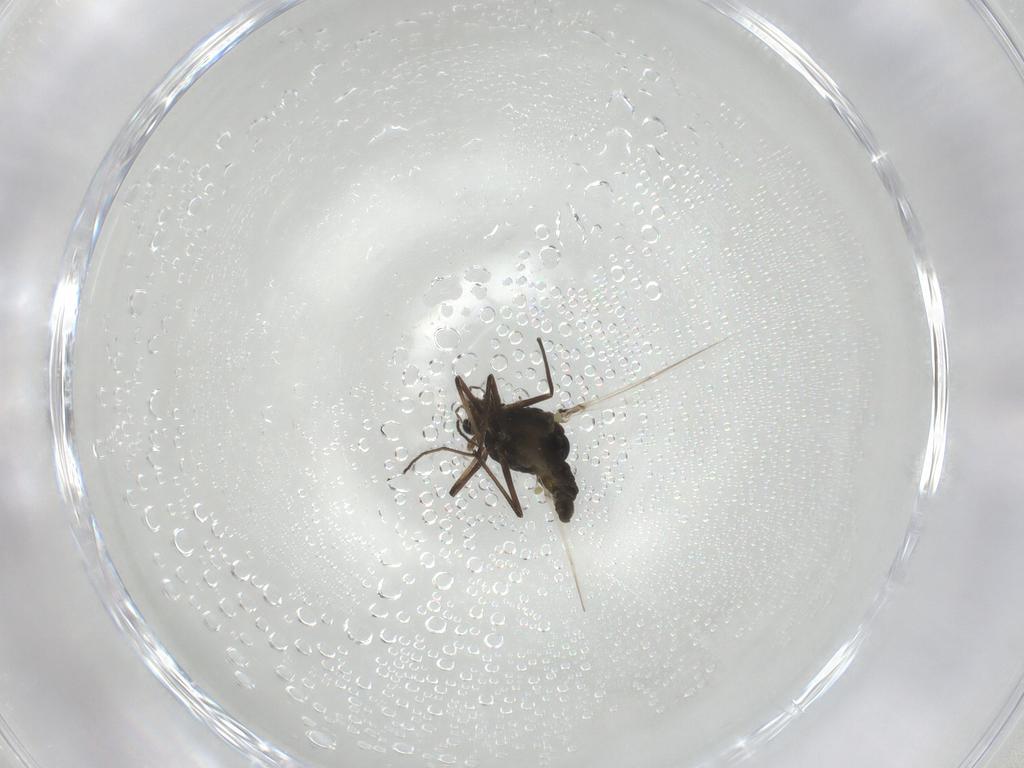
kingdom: Animalia
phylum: Arthropoda
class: Insecta
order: Diptera
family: Chironomidae
